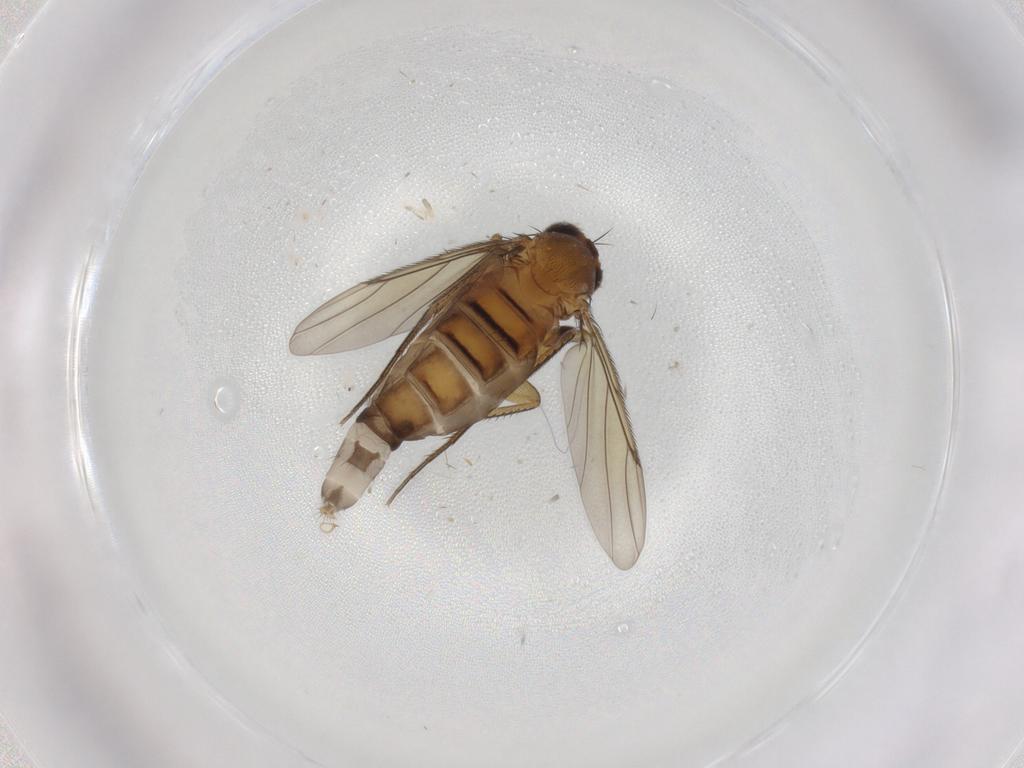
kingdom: Animalia
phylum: Arthropoda
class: Insecta
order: Diptera
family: Phoridae
